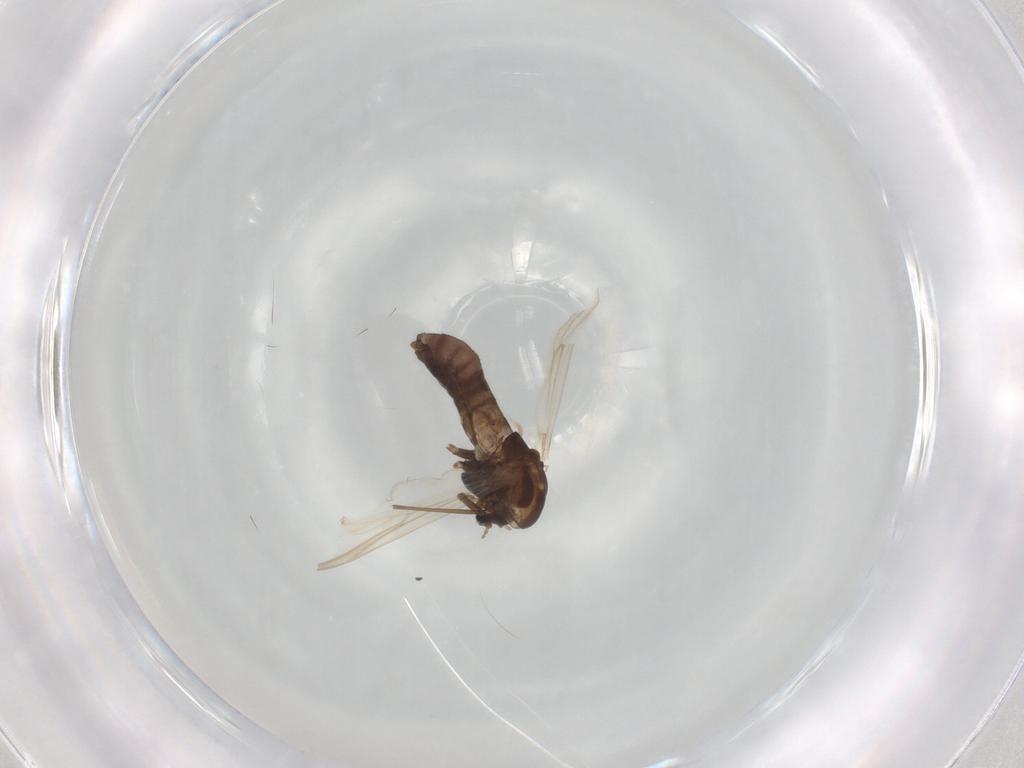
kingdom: Animalia
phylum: Arthropoda
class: Insecta
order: Diptera
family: Chironomidae
